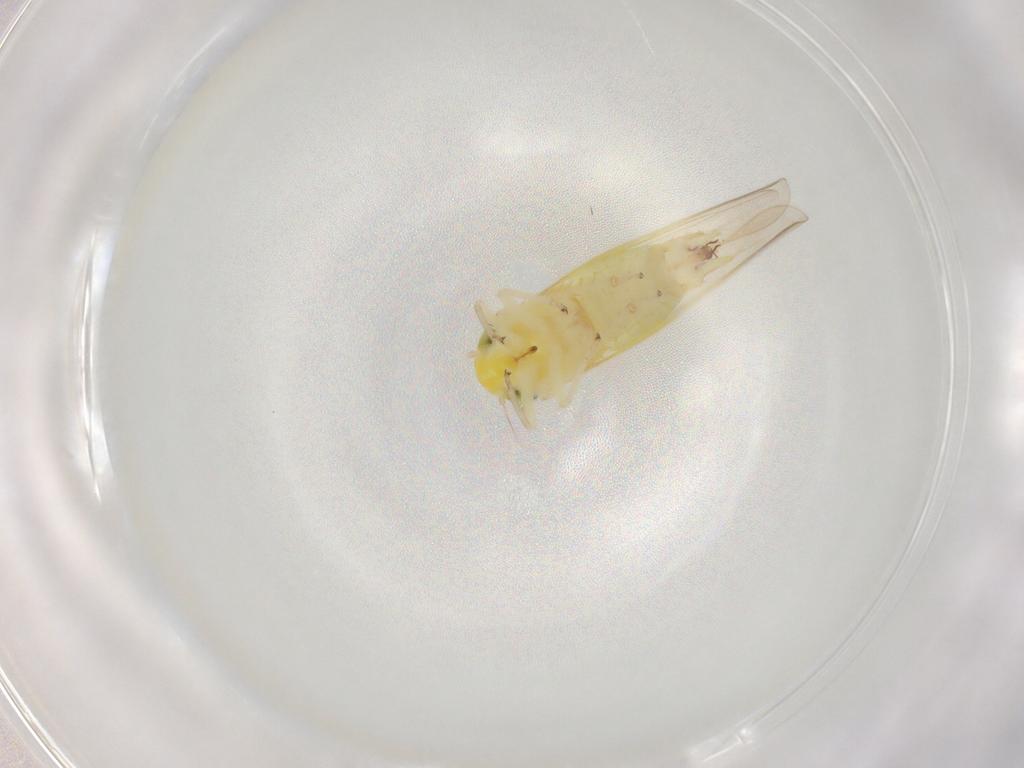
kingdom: Animalia
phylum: Arthropoda
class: Insecta
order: Hemiptera
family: Cicadellidae
